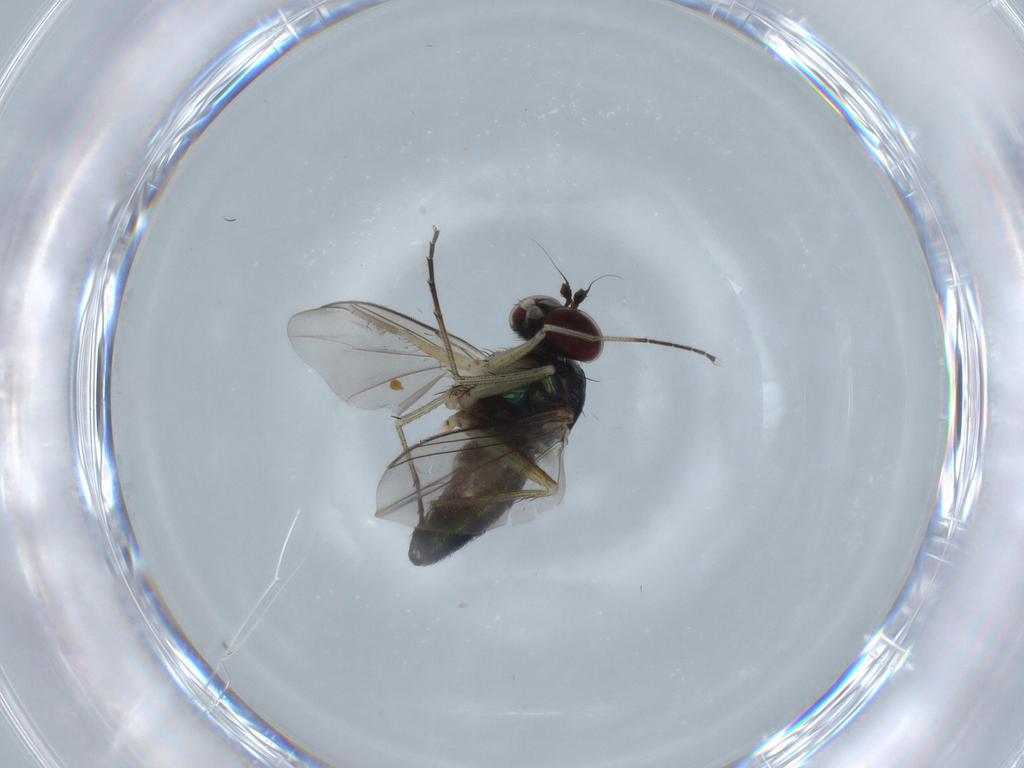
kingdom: Animalia
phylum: Arthropoda
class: Insecta
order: Diptera
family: Dolichopodidae
